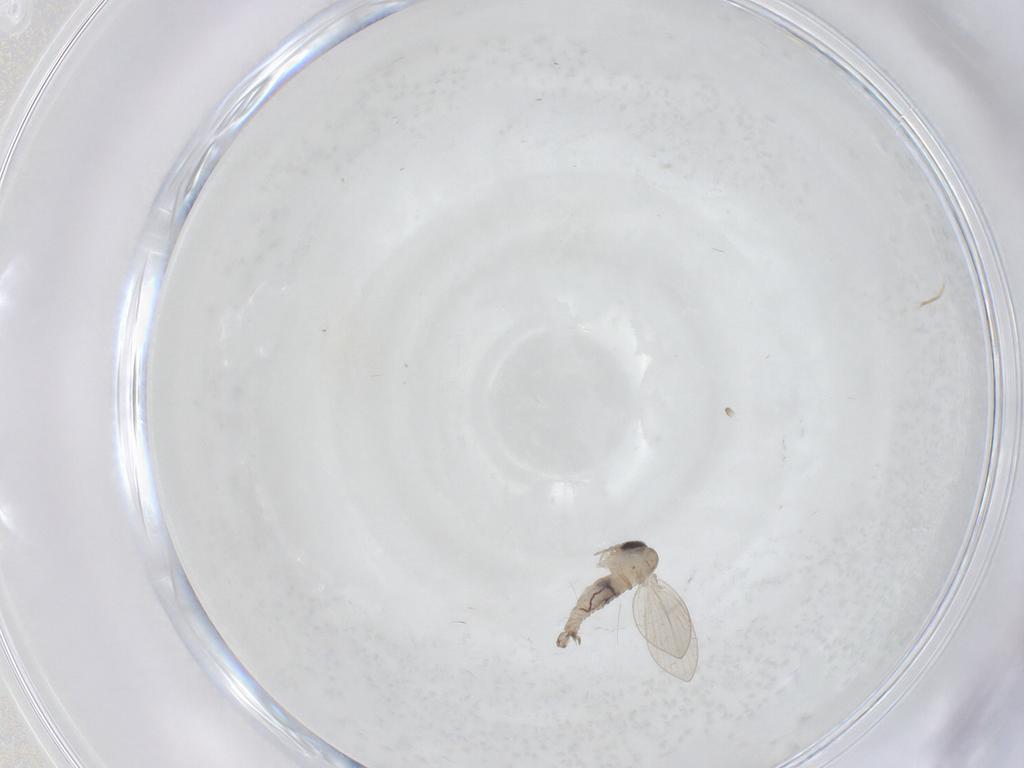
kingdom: Animalia
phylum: Arthropoda
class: Insecta
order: Diptera
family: Psychodidae
